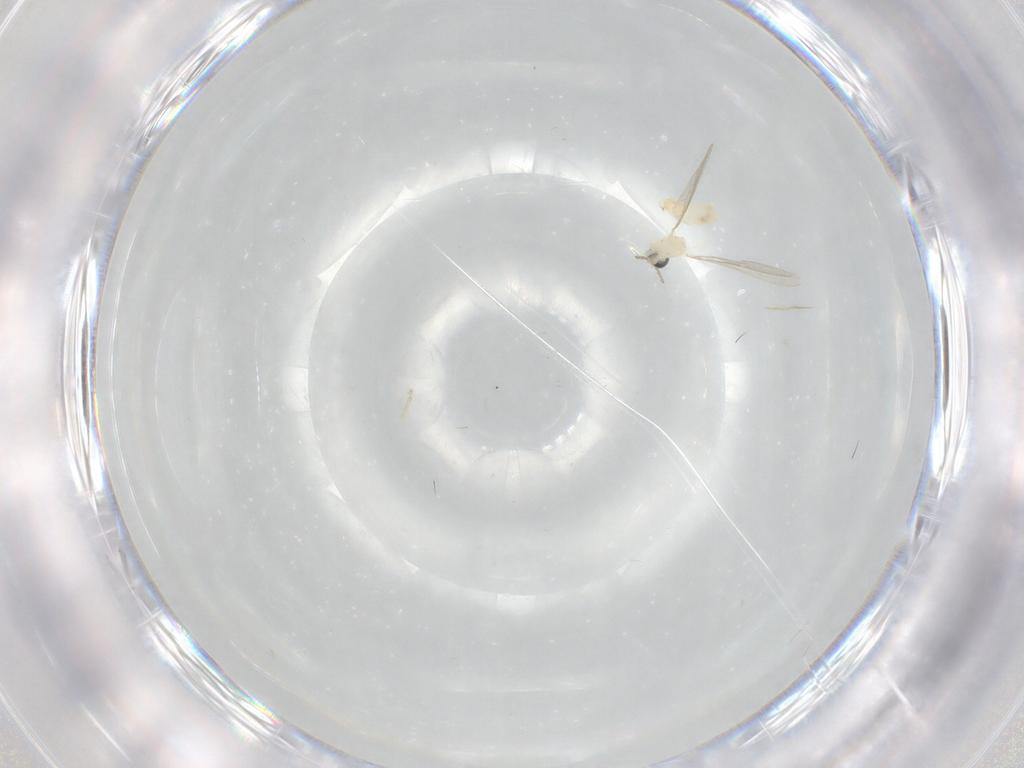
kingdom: Animalia
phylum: Arthropoda
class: Insecta
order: Diptera
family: Cecidomyiidae
